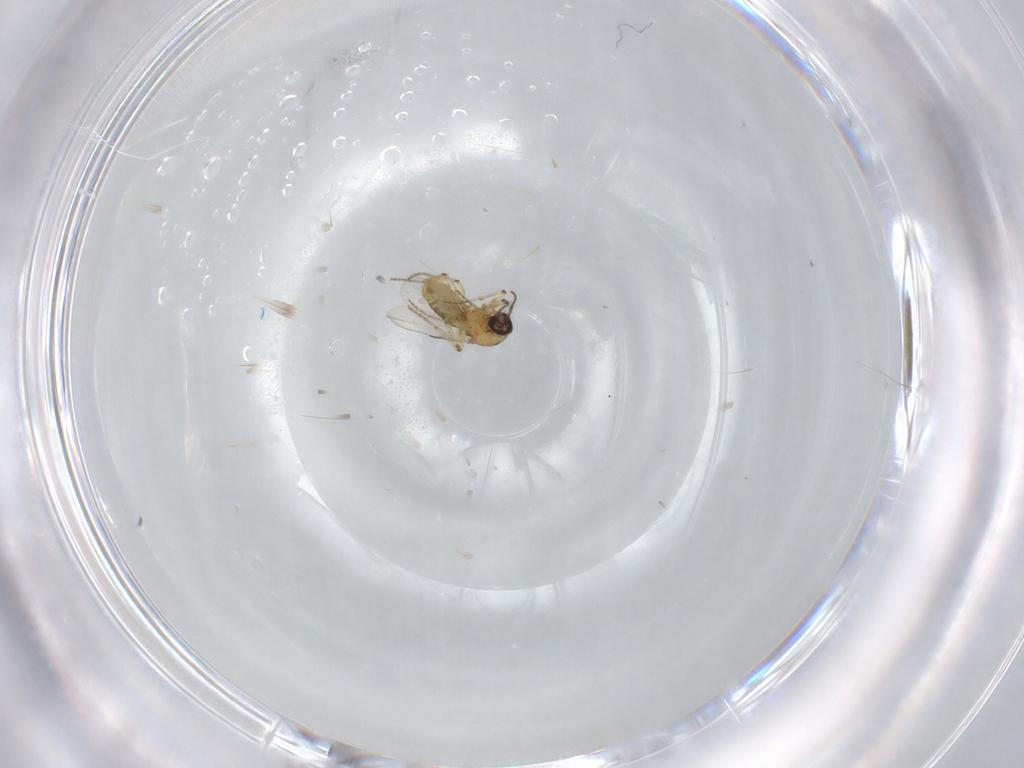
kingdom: Animalia
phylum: Arthropoda
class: Insecta
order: Diptera
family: Ceratopogonidae
